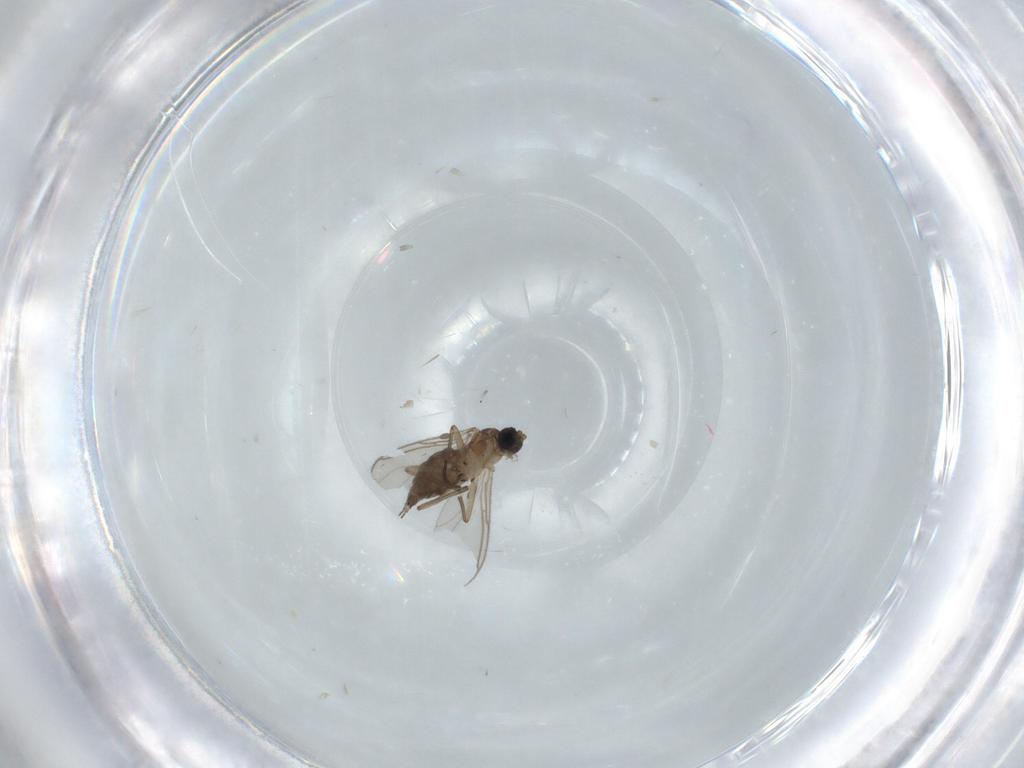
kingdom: Animalia
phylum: Arthropoda
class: Insecta
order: Diptera
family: Sciaridae
